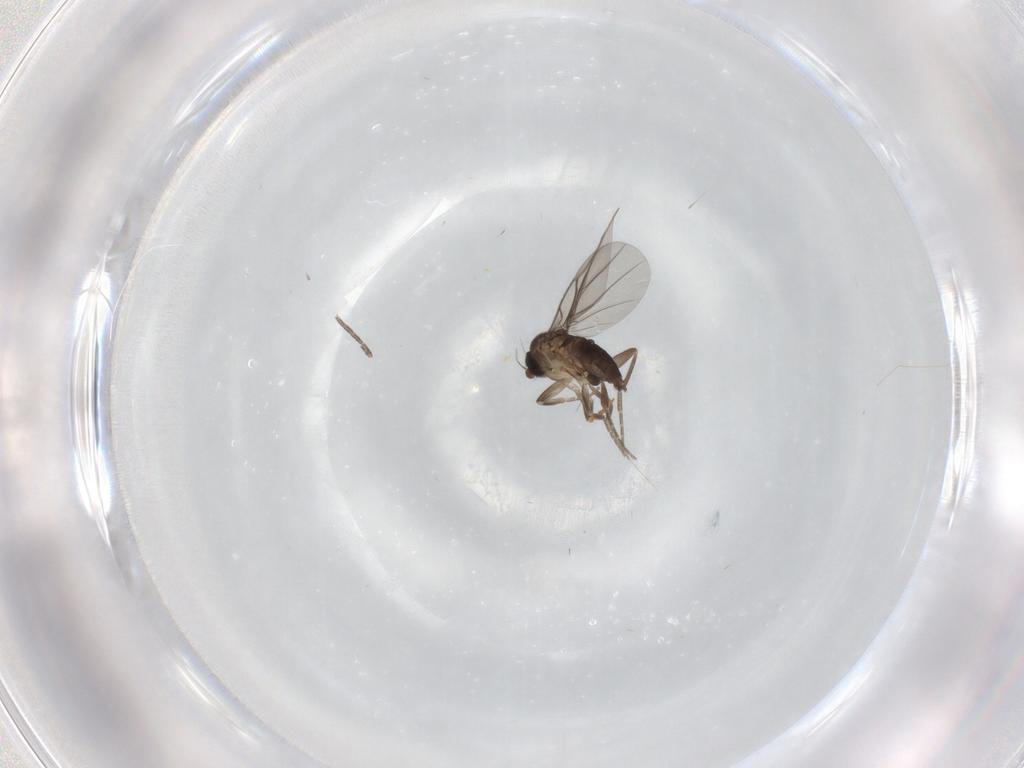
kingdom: Animalia
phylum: Arthropoda
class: Insecta
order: Diptera
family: Phoridae
